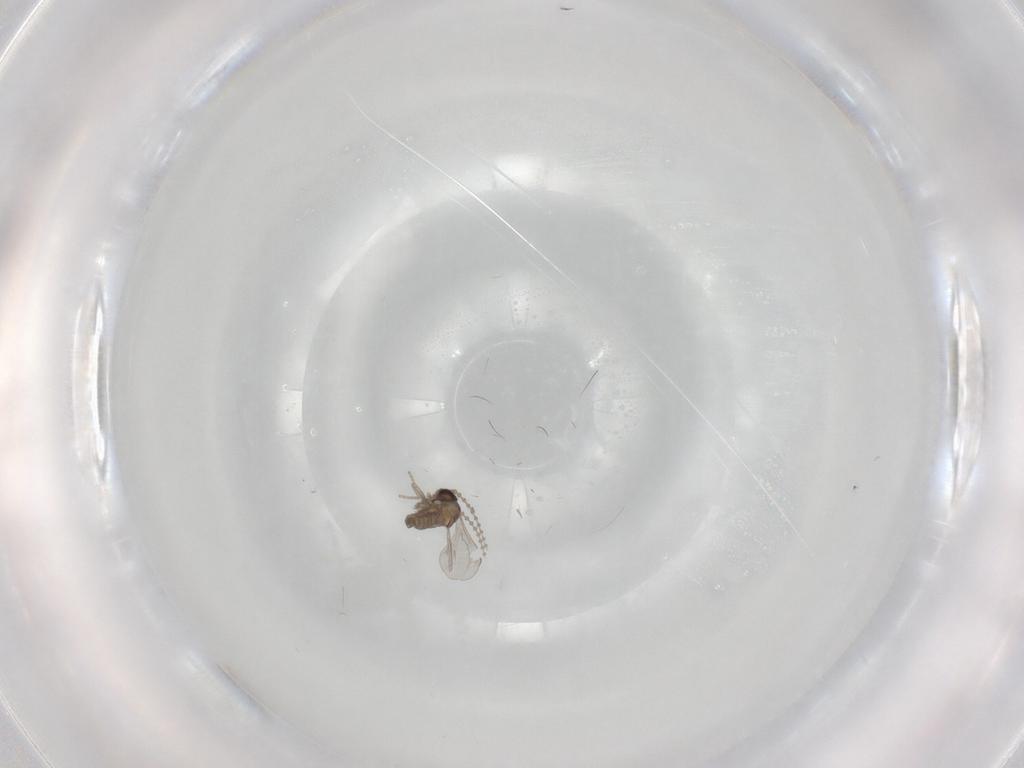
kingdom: Animalia
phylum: Arthropoda
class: Insecta
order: Diptera
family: Cecidomyiidae
